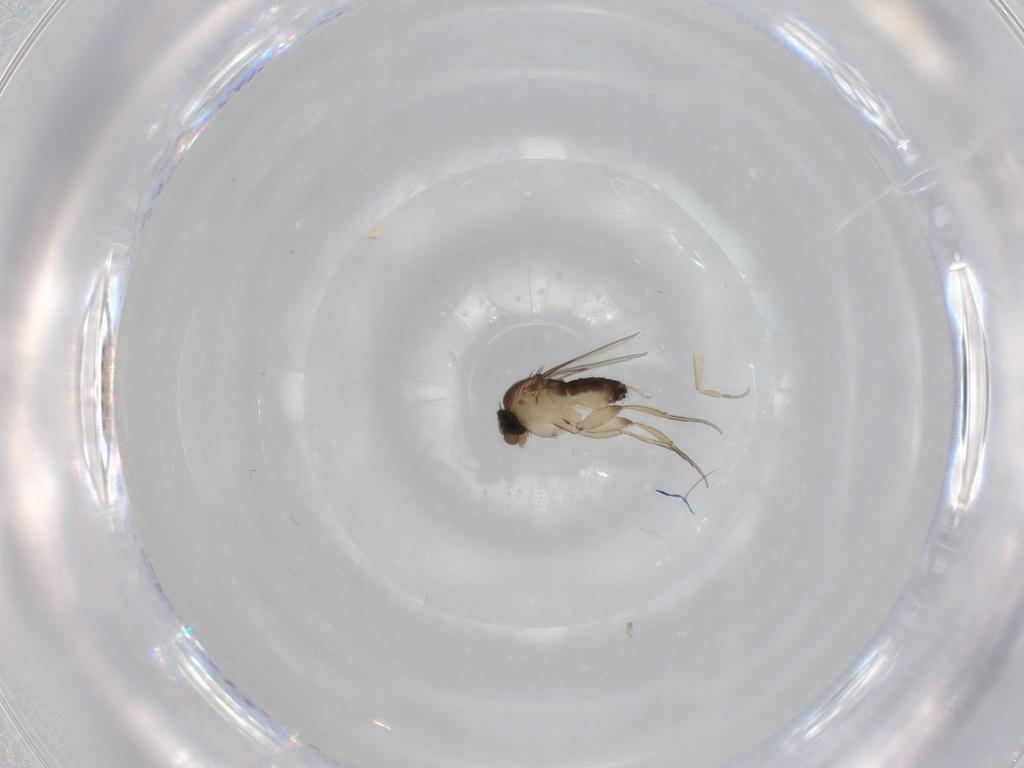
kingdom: Animalia
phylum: Arthropoda
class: Insecta
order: Diptera
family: Phoridae
